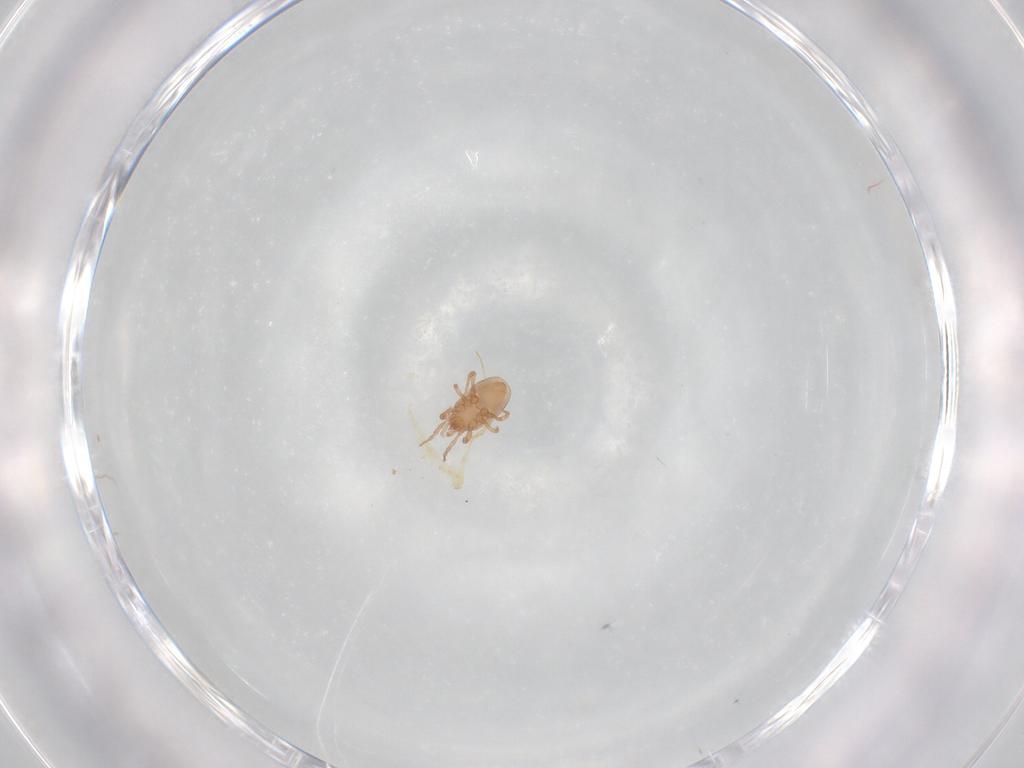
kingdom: Animalia
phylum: Arthropoda
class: Arachnida
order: Mesostigmata
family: Ologamasidae
